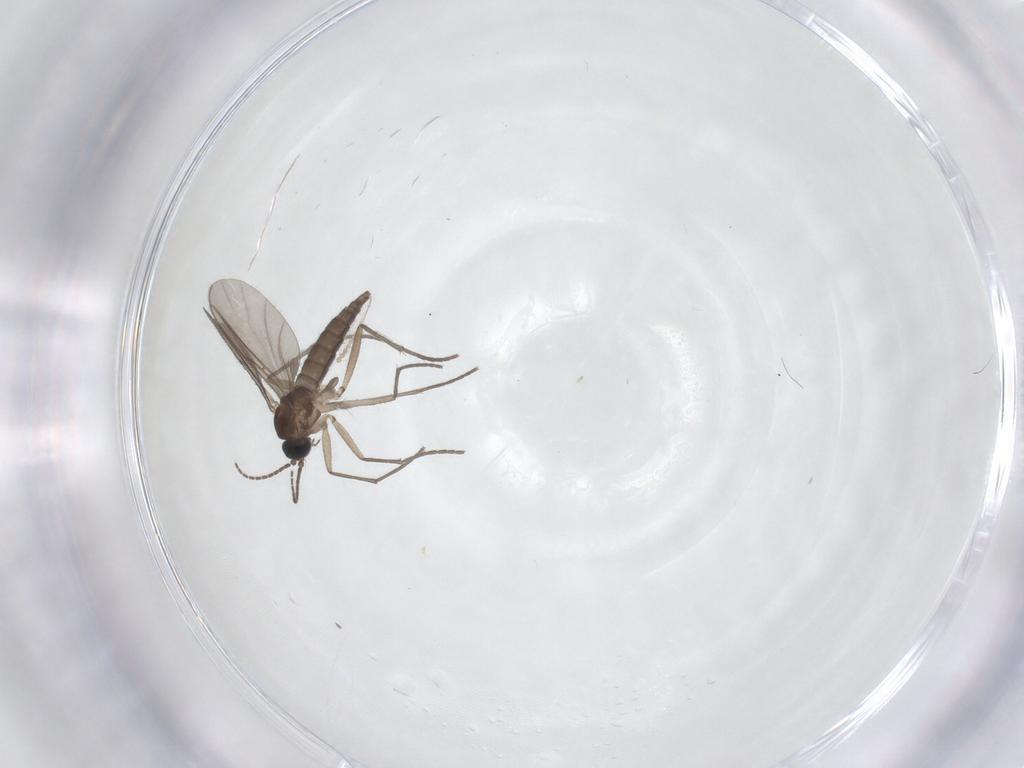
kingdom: Animalia
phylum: Arthropoda
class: Insecta
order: Diptera
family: Sciaridae
